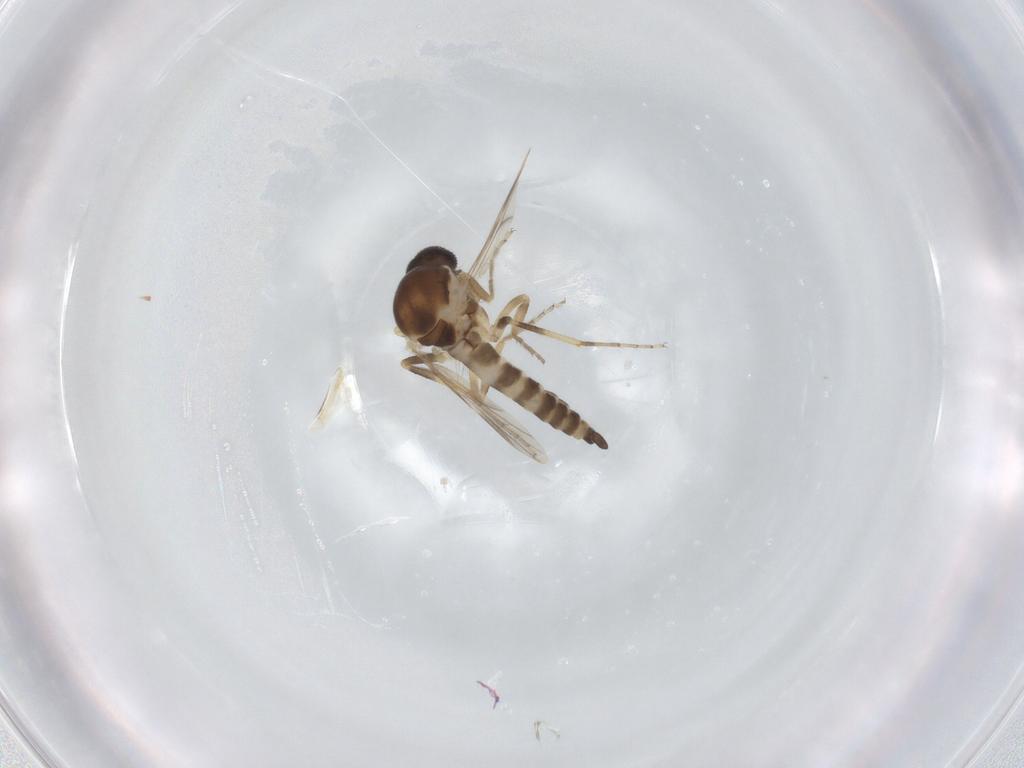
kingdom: Animalia
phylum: Arthropoda
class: Insecta
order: Diptera
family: Ceratopogonidae
